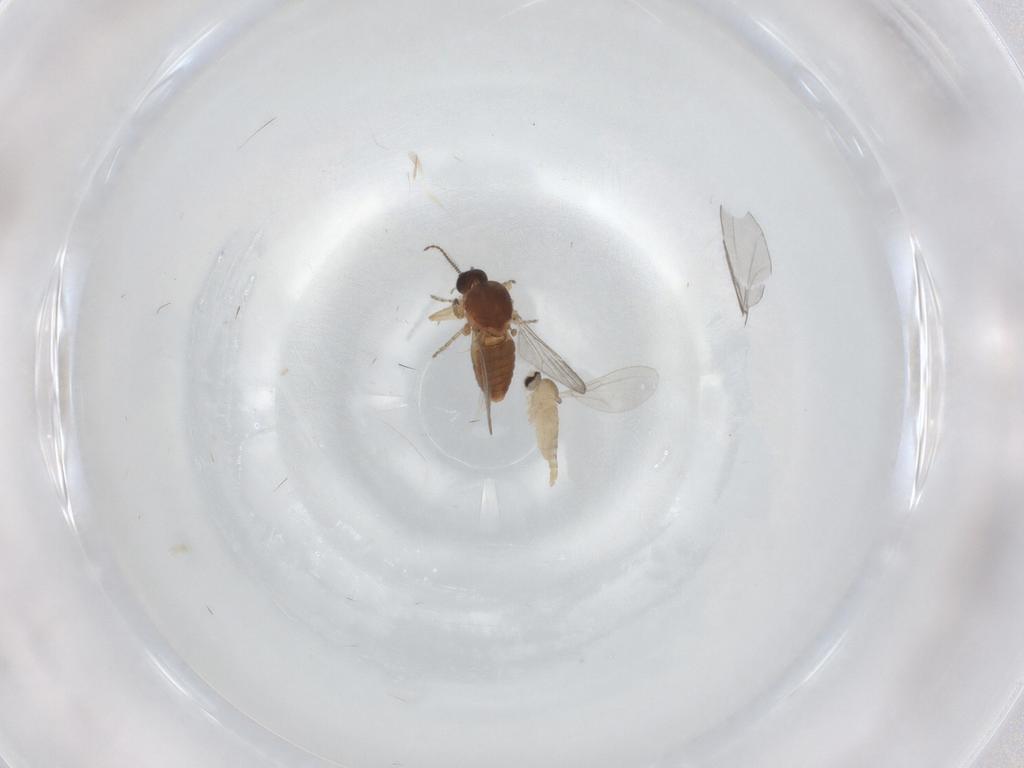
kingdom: Animalia
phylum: Arthropoda
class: Insecta
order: Diptera
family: Cecidomyiidae
